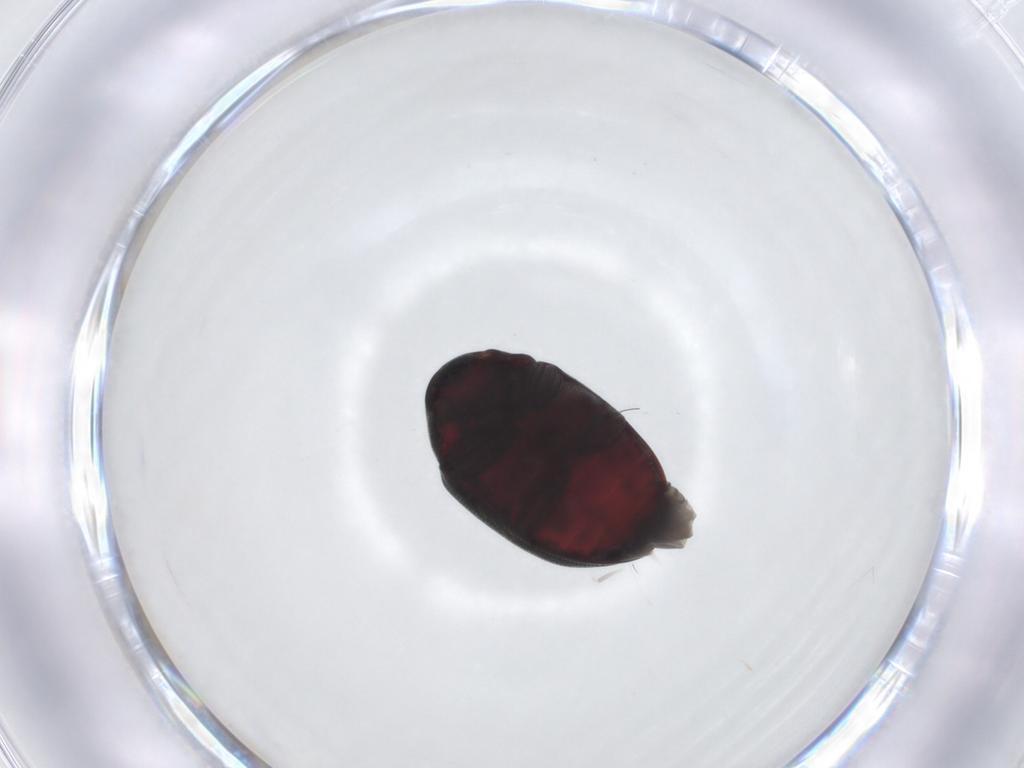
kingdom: Animalia
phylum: Arthropoda
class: Insecta
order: Coleoptera
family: Ptinidae
